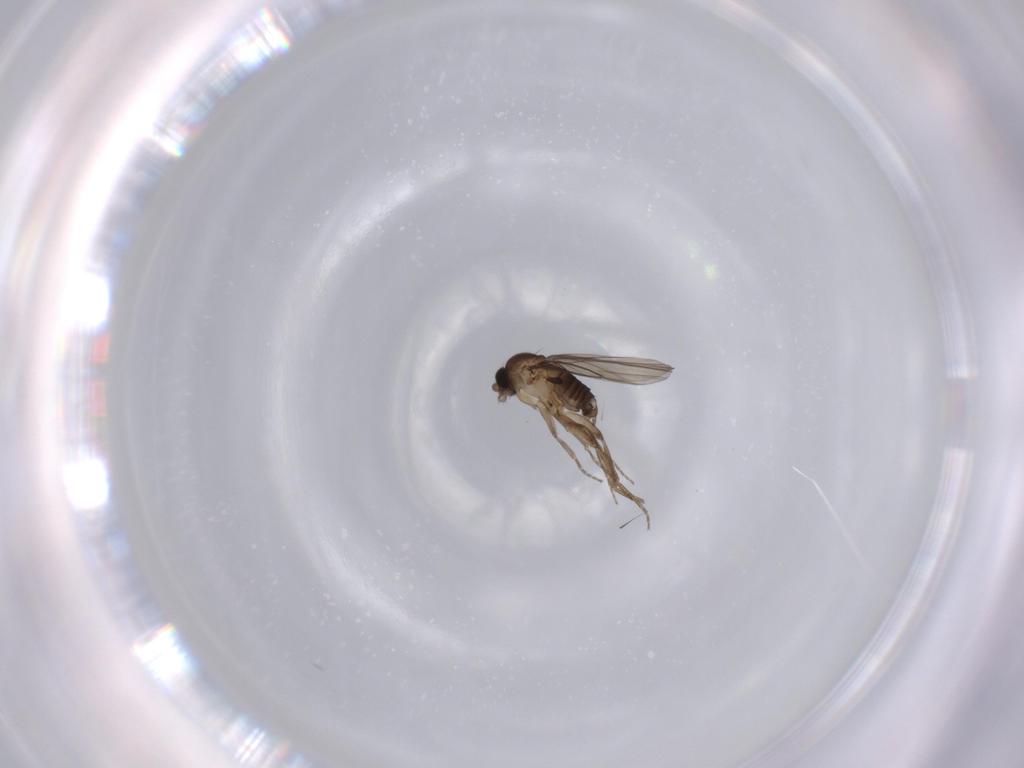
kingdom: Animalia
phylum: Arthropoda
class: Insecta
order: Diptera
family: Phoridae
